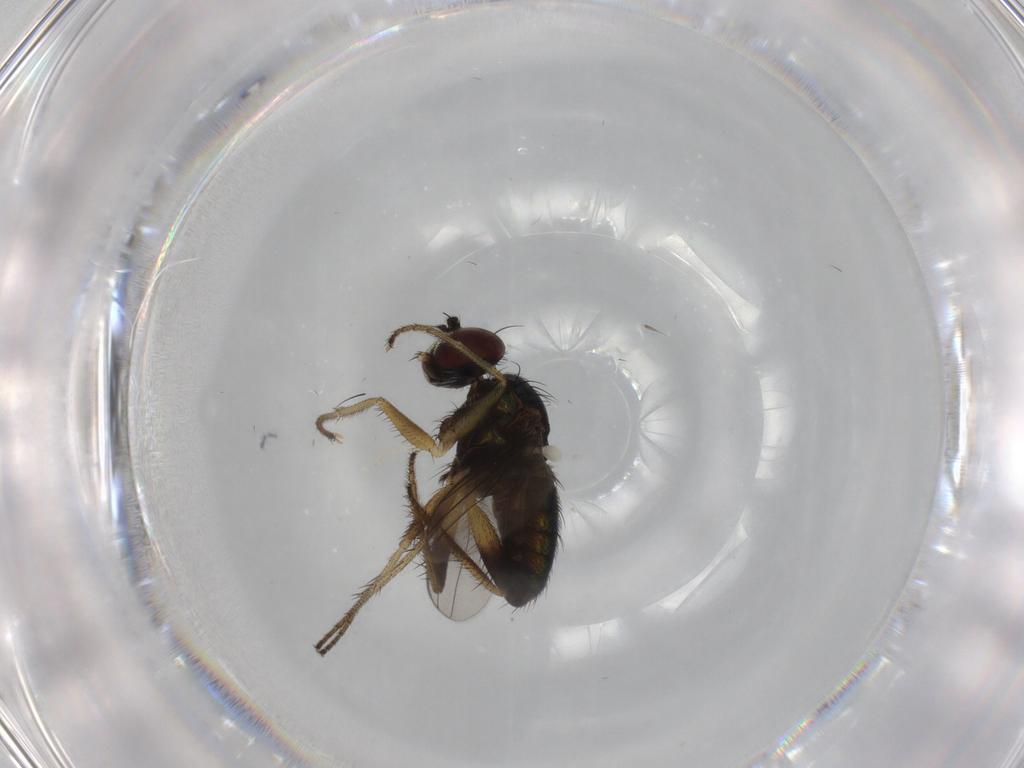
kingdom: Animalia
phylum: Arthropoda
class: Insecta
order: Diptera
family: Dolichopodidae
